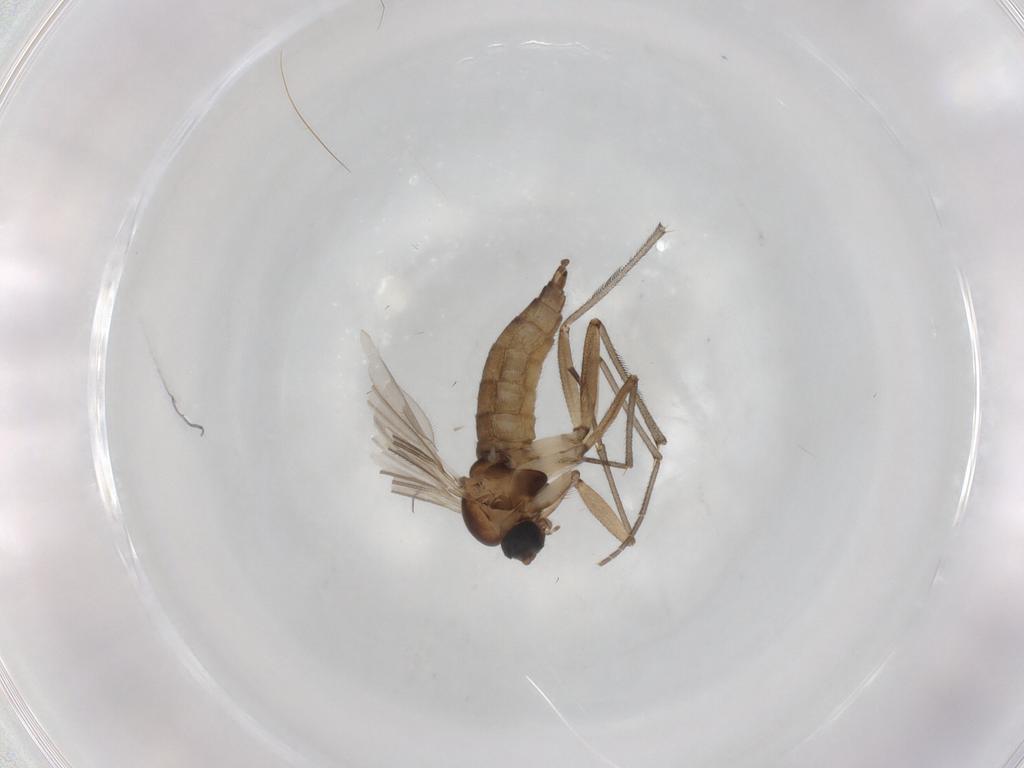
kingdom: Animalia
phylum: Arthropoda
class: Insecta
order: Diptera
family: Sciaridae
